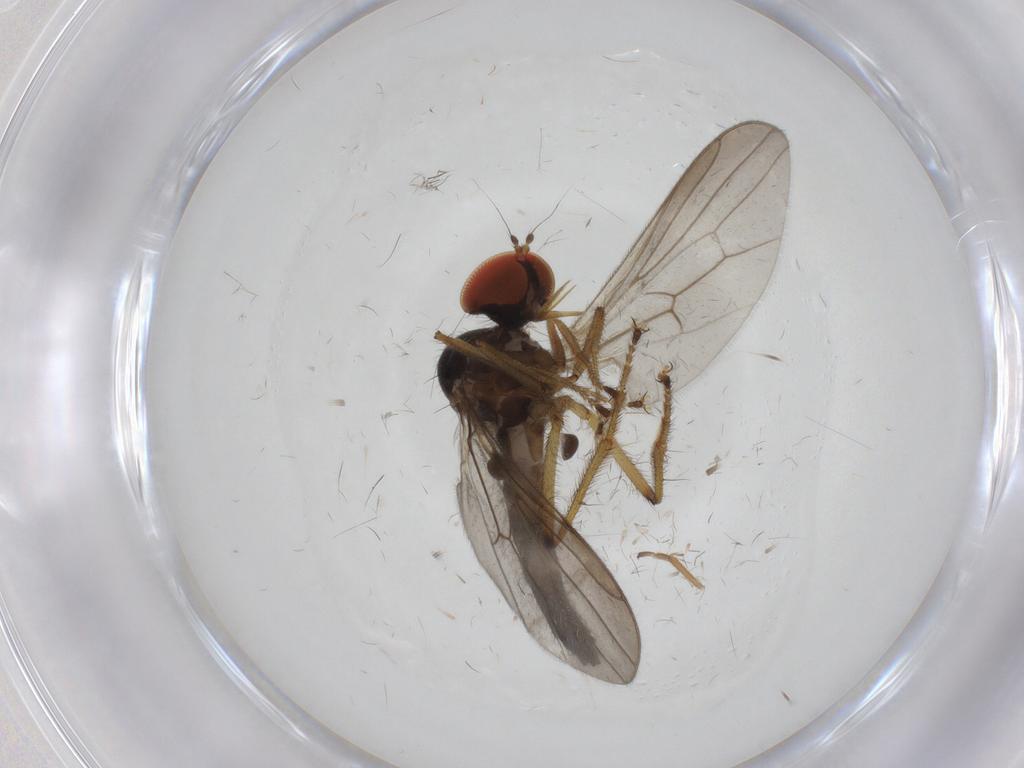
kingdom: Animalia
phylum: Arthropoda
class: Insecta
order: Diptera
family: Hybotidae
